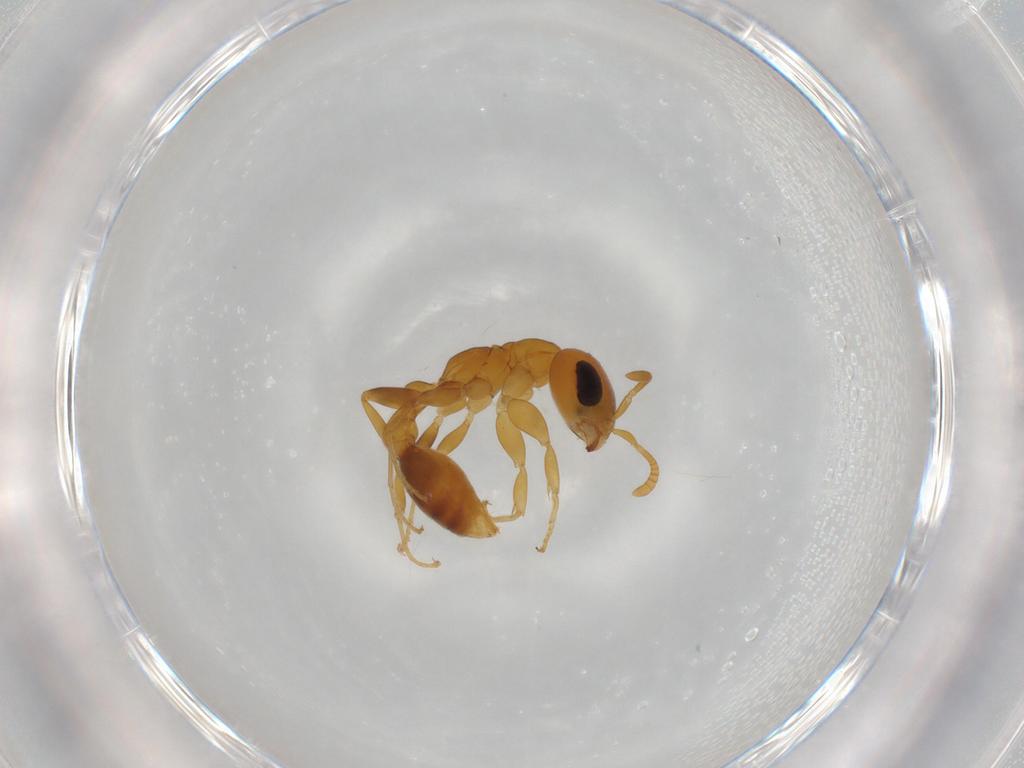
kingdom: Animalia
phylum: Arthropoda
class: Insecta
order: Hymenoptera
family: Formicidae
